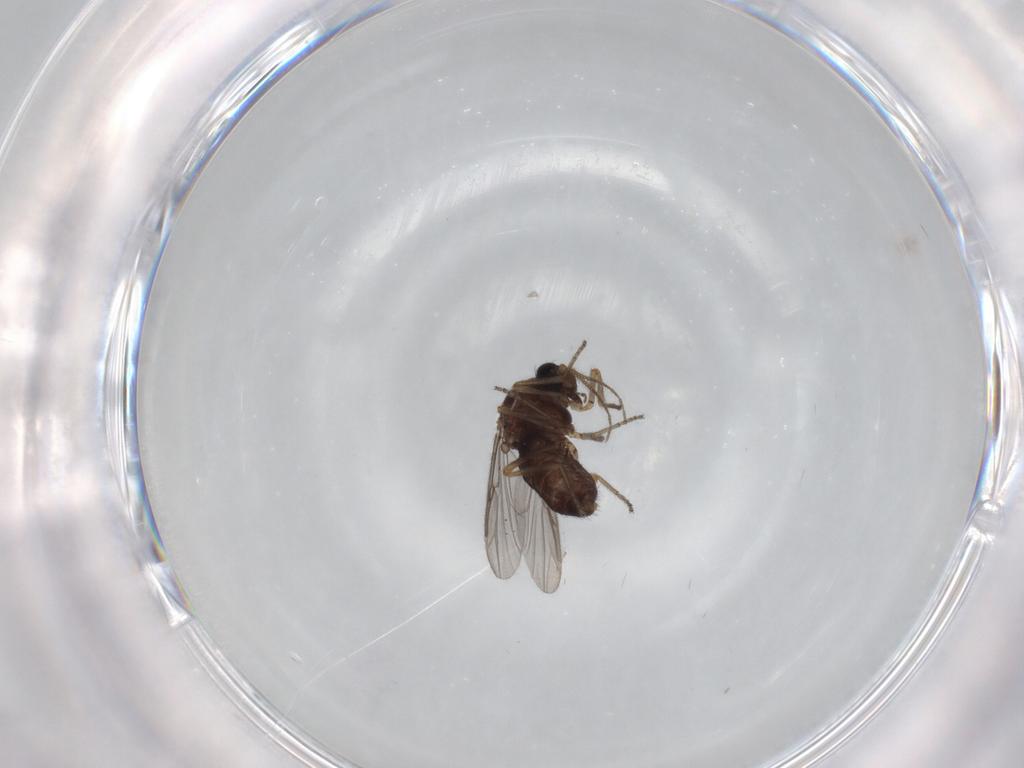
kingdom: Animalia
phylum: Arthropoda
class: Insecta
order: Diptera
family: Ceratopogonidae
